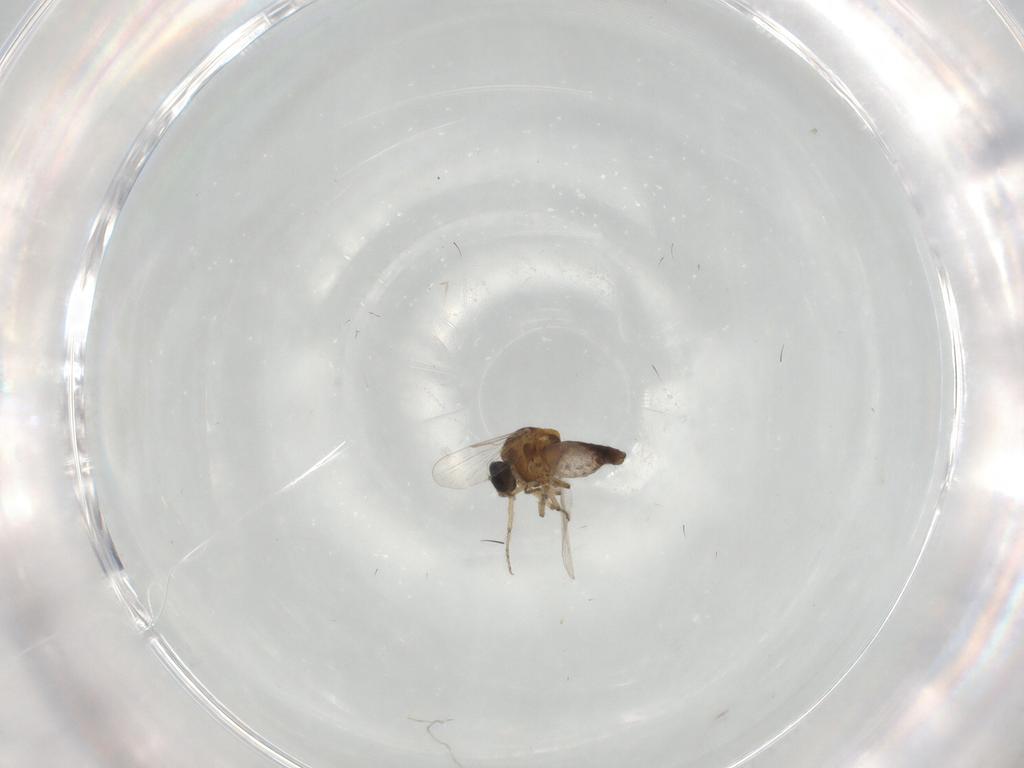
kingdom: Animalia
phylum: Arthropoda
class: Insecta
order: Diptera
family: Ceratopogonidae
